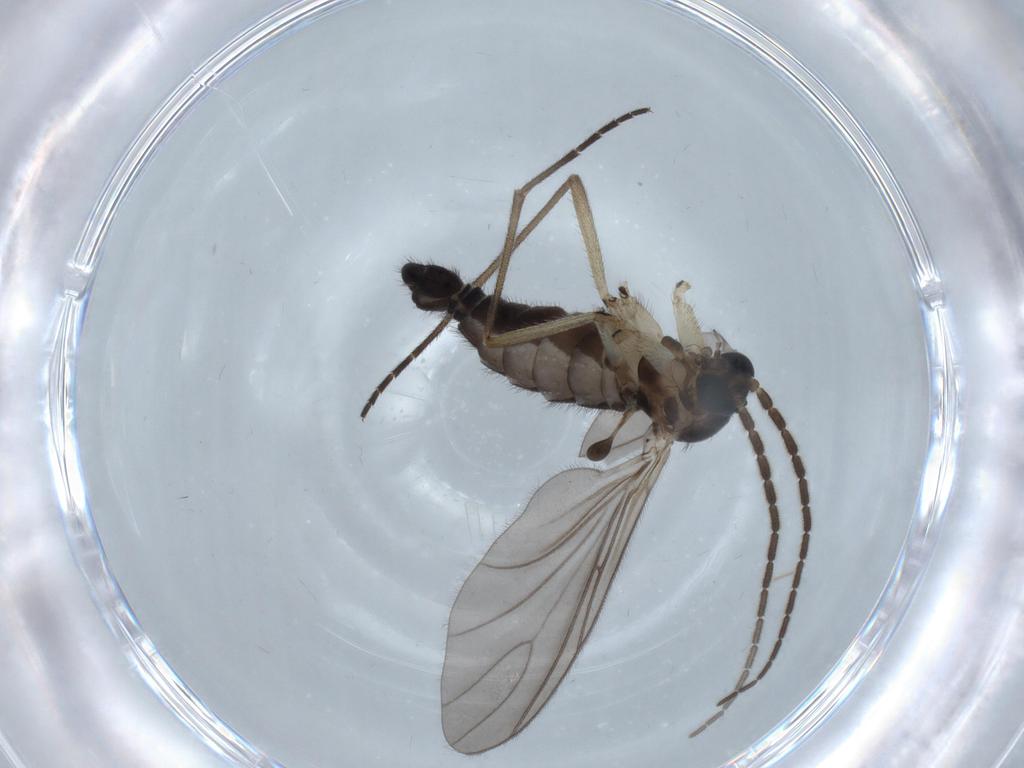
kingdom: Animalia
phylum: Arthropoda
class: Insecta
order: Diptera
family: Sciaridae
